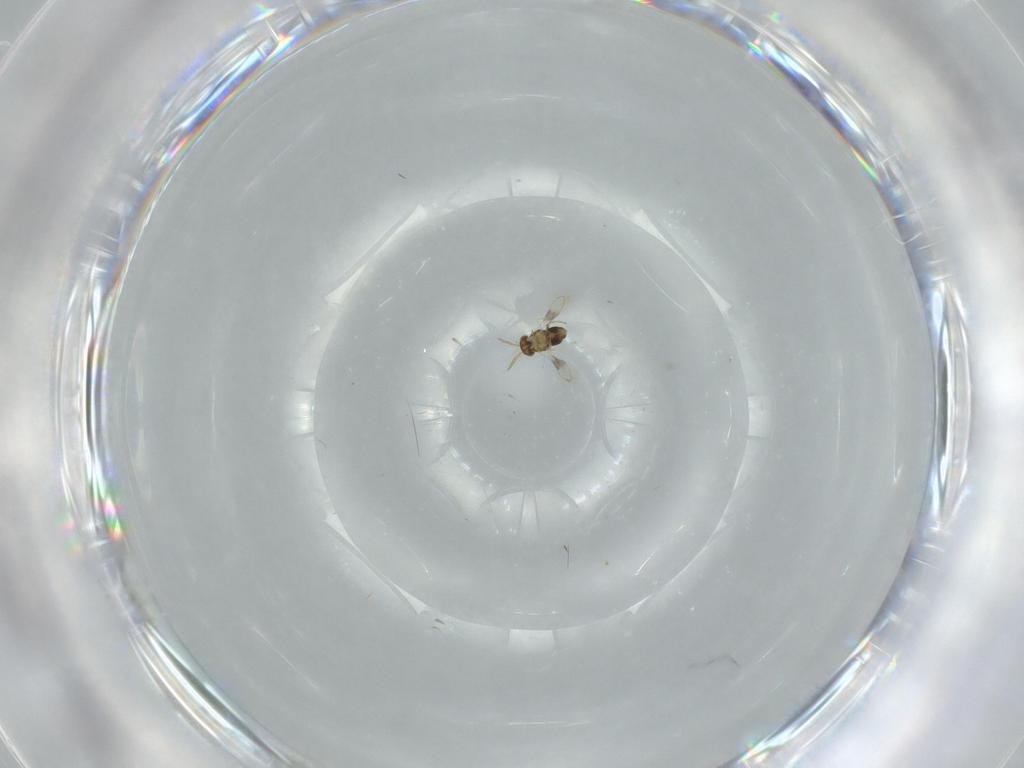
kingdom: Animalia
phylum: Arthropoda
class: Insecta
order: Hymenoptera
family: Aphelinidae
